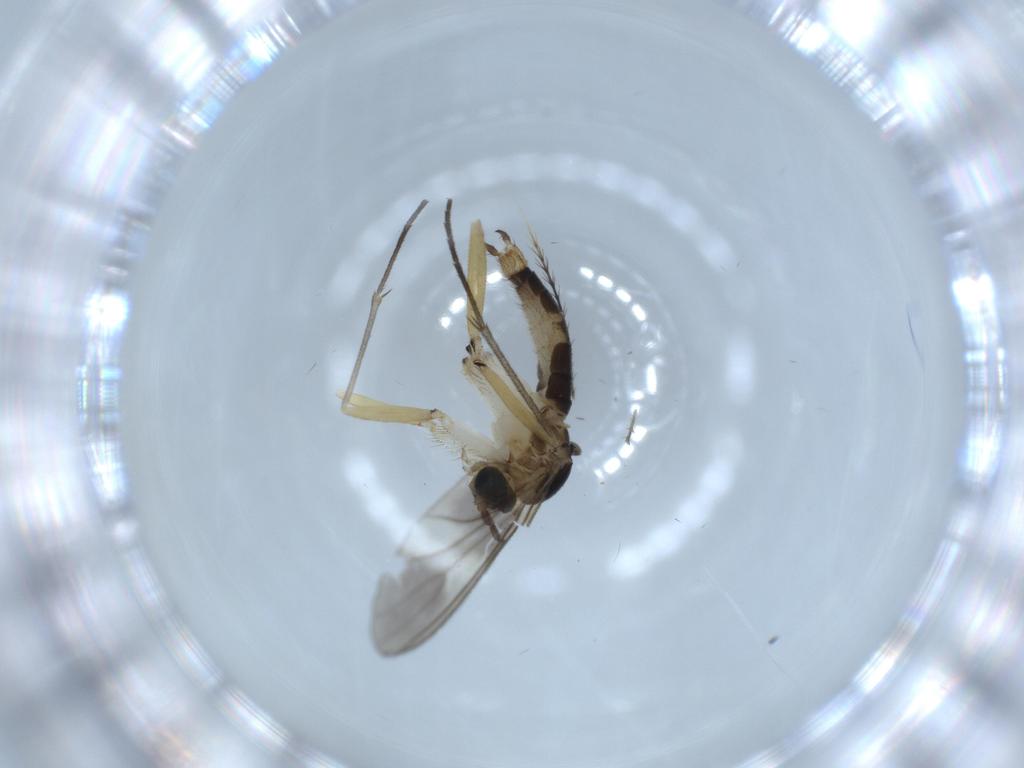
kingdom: Animalia
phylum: Arthropoda
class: Insecta
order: Diptera
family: Sciaridae
